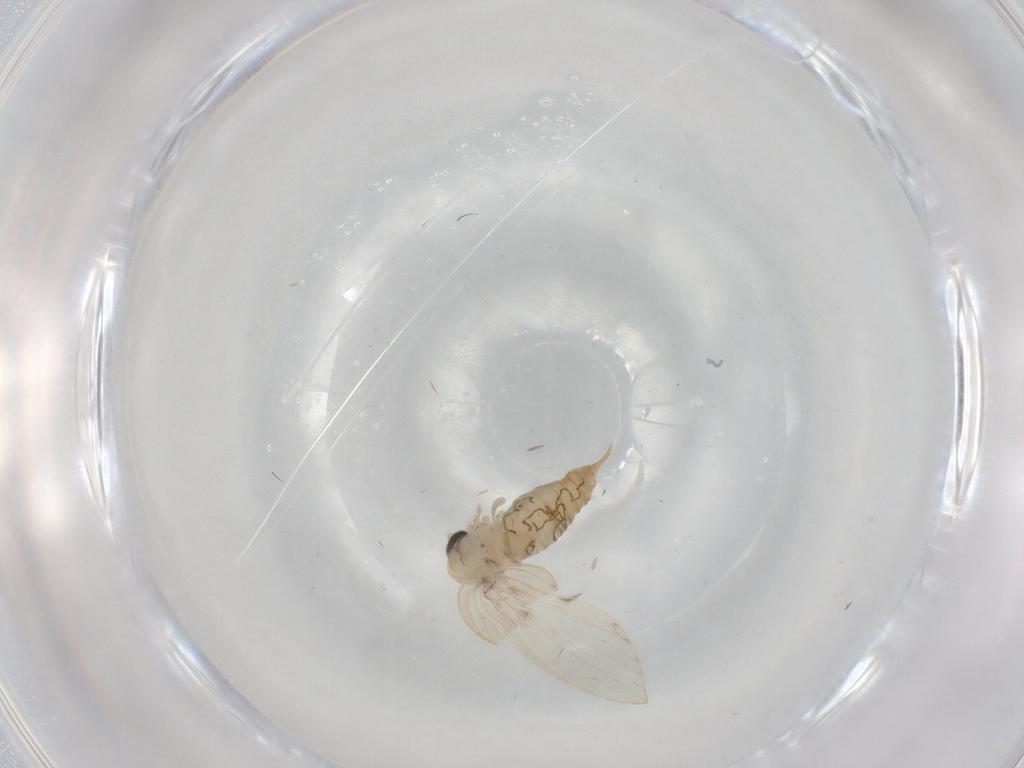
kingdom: Animalia
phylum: Arthropoda
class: Insecta
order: Diptera
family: Psychodidae
